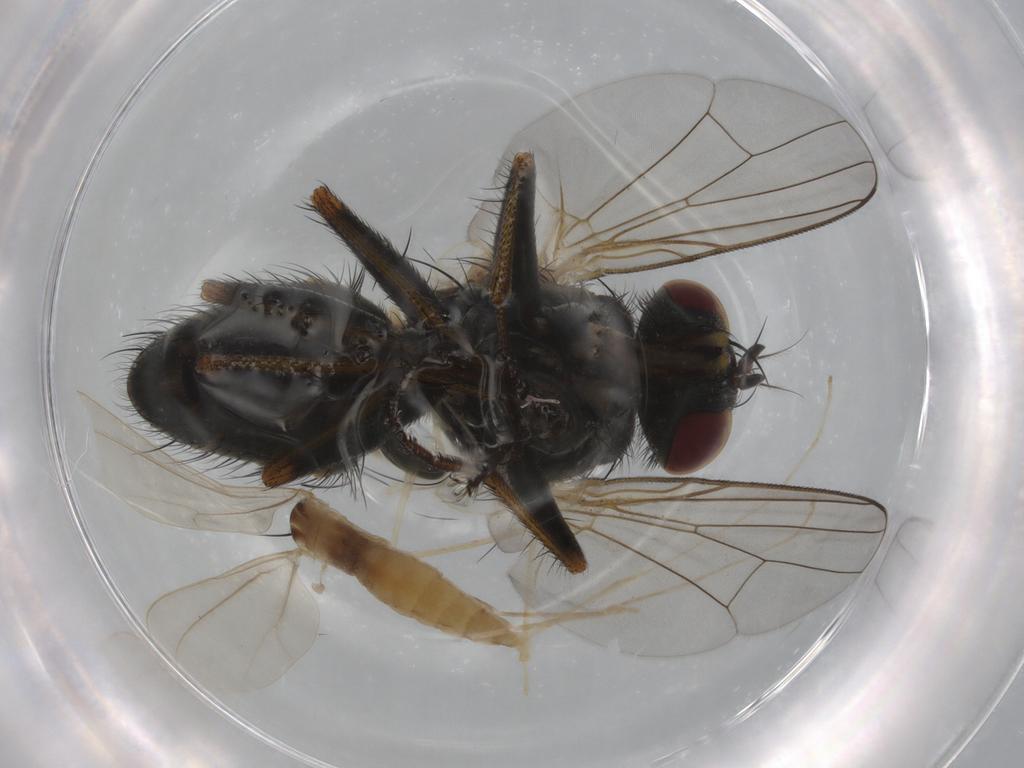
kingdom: Animalia
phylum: Arthropoda
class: Insecta
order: Diptera
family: Muscidae
